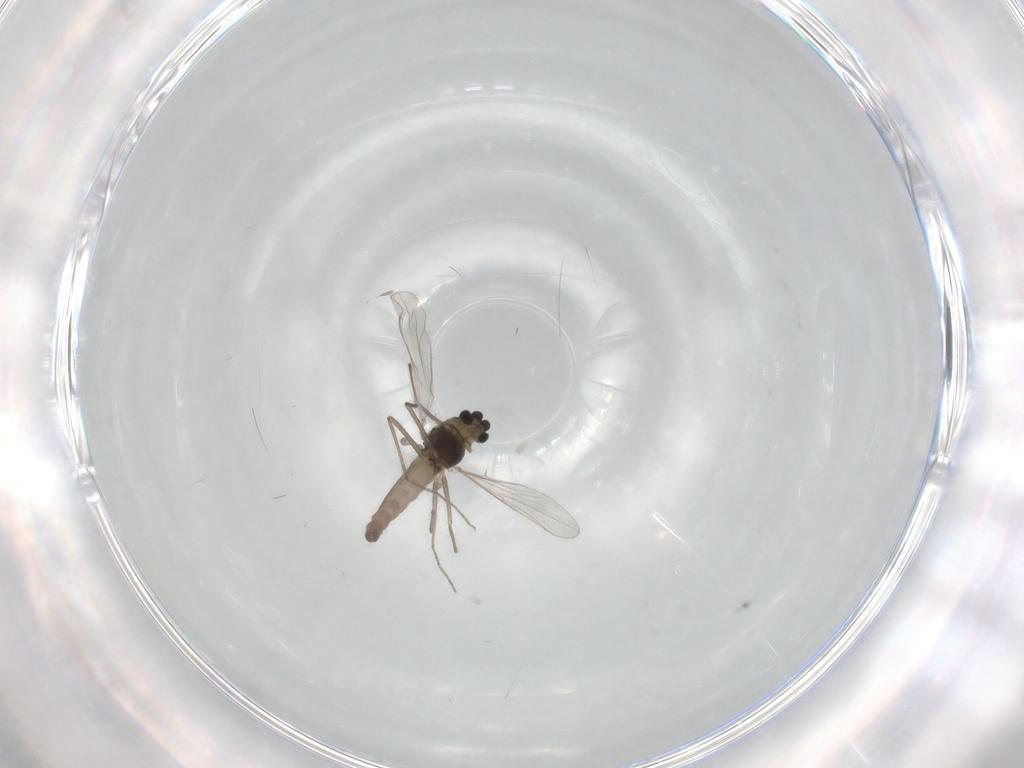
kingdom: Animalia
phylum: Arthropoda
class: Insecta
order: Diptera
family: Chironomidae
